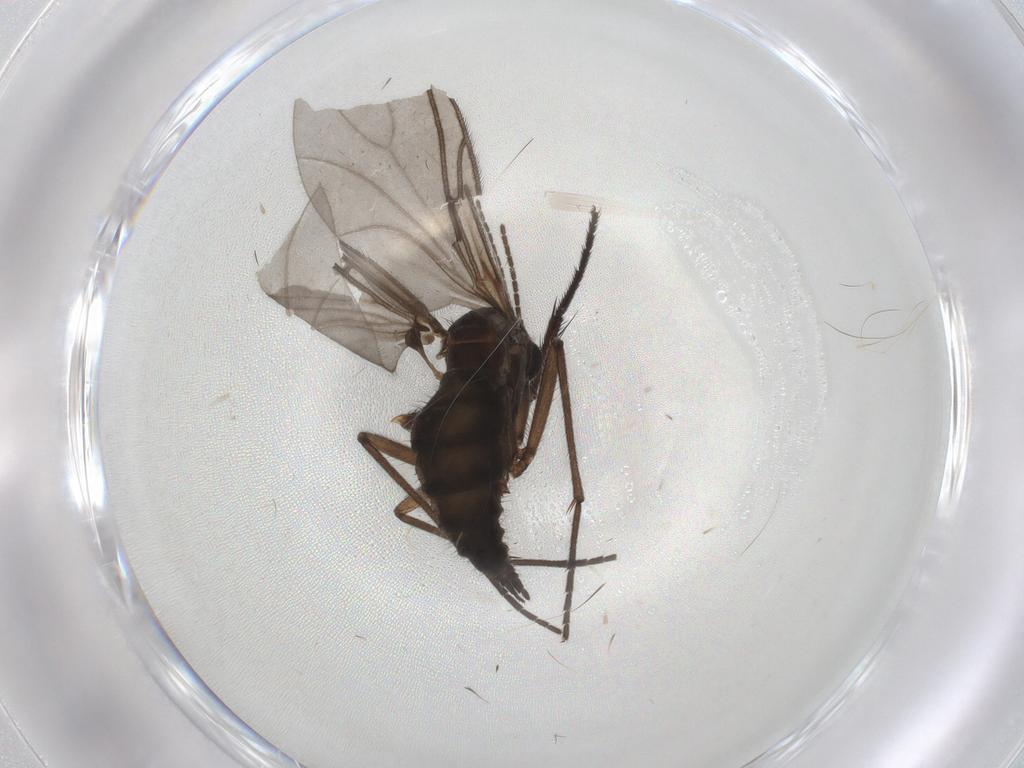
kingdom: Animalia
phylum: Arthropoda
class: Insecta
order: Diptera
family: Sciaridae
